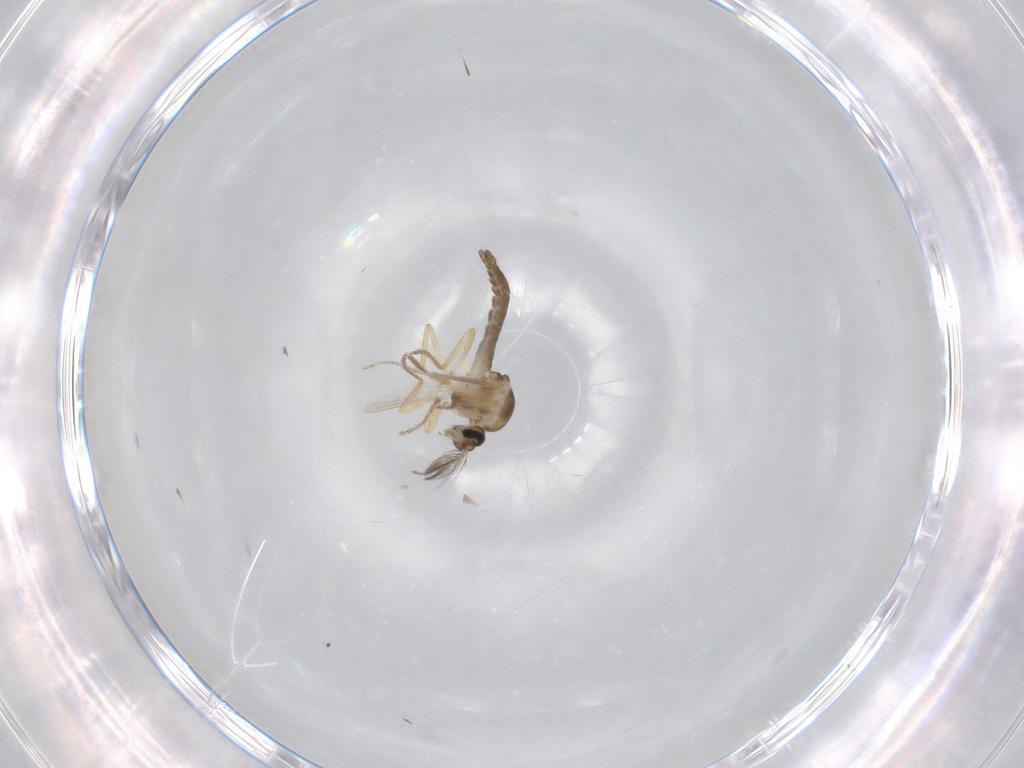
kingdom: Animalia
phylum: Arthropoda
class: Insecta
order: Diptera
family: Ceratopogonidae
